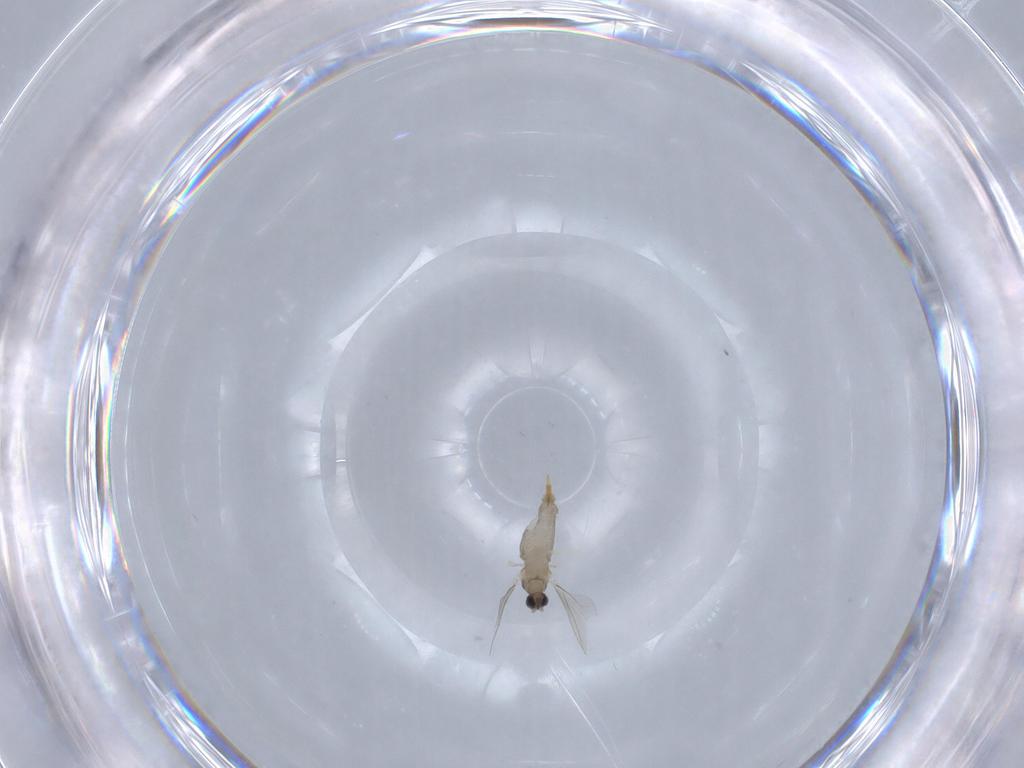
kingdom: Animalia
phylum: Arthropoda
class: Insecta
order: Diptera
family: Cecidomyiidae
